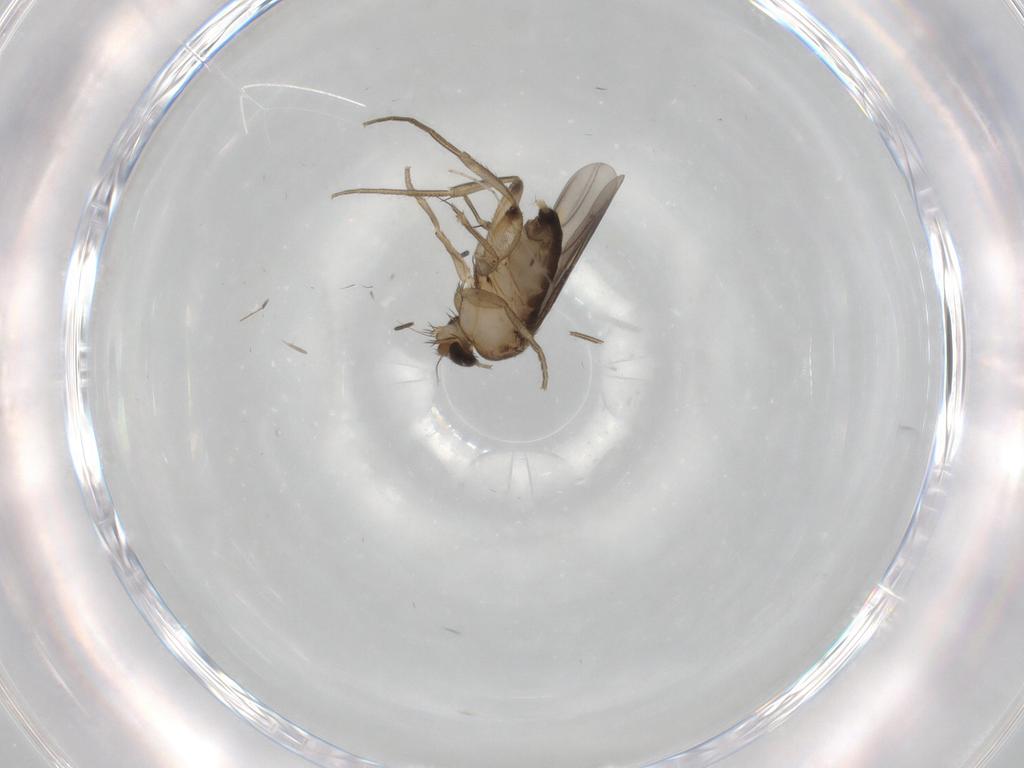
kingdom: Animalia
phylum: Arthropoda
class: Insecta
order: Diptera
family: Phoridae
